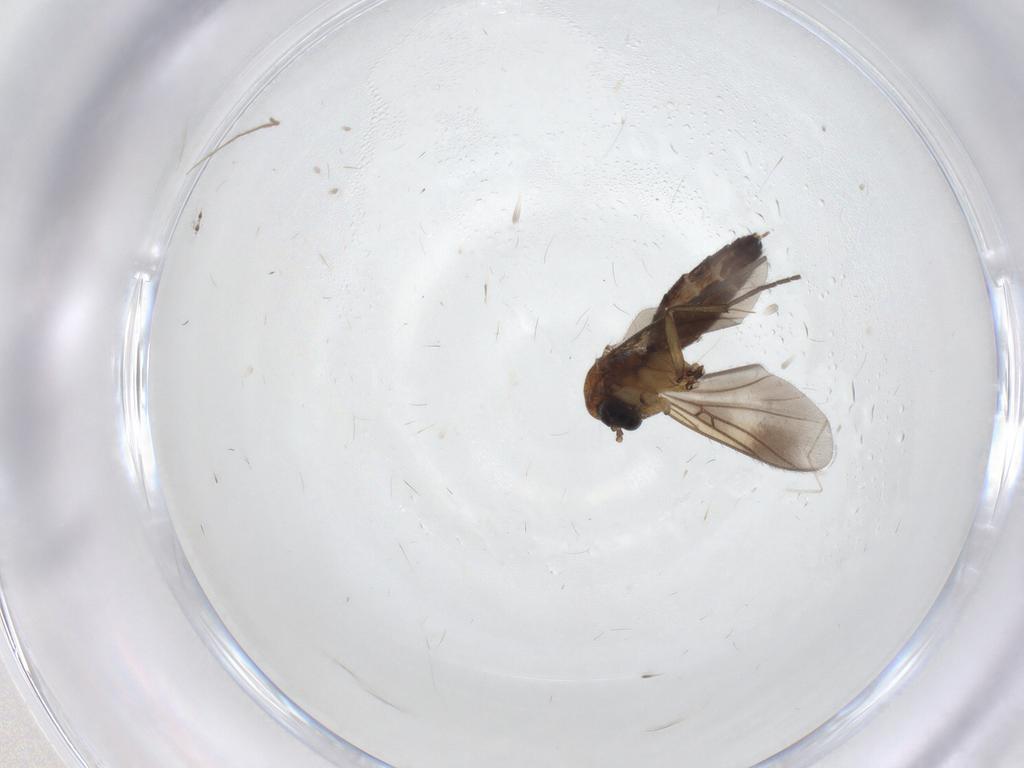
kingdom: Animalia
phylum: Arthropoda
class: Insecta
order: Diptera
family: Mycetophilidae
